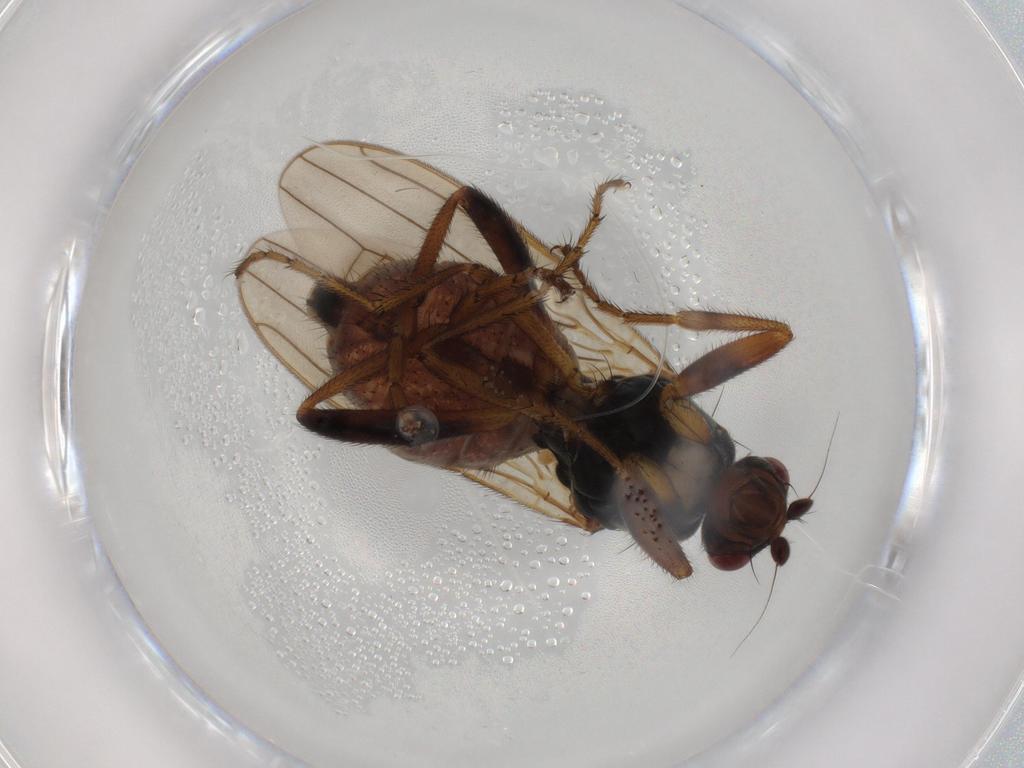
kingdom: Animalia
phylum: Arthropoda
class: Insecta
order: Diptera
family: Sphaeroceridae
